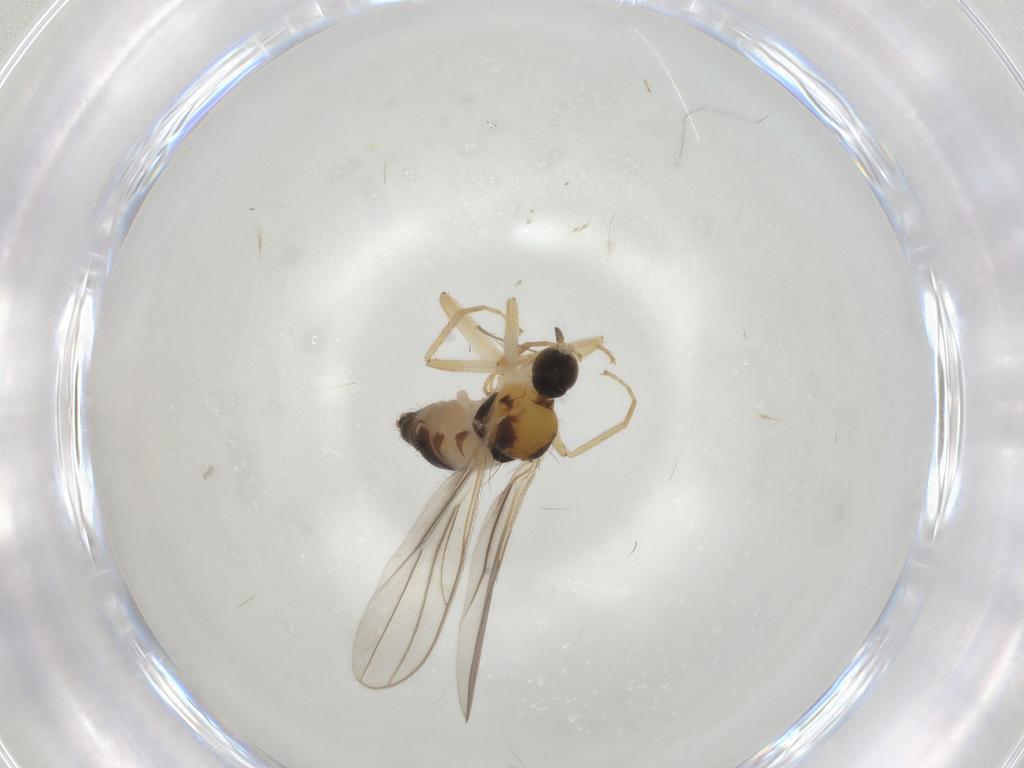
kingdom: Animalia
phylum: Arthropoda
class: Insecta
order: Diptera
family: Hybotidae
